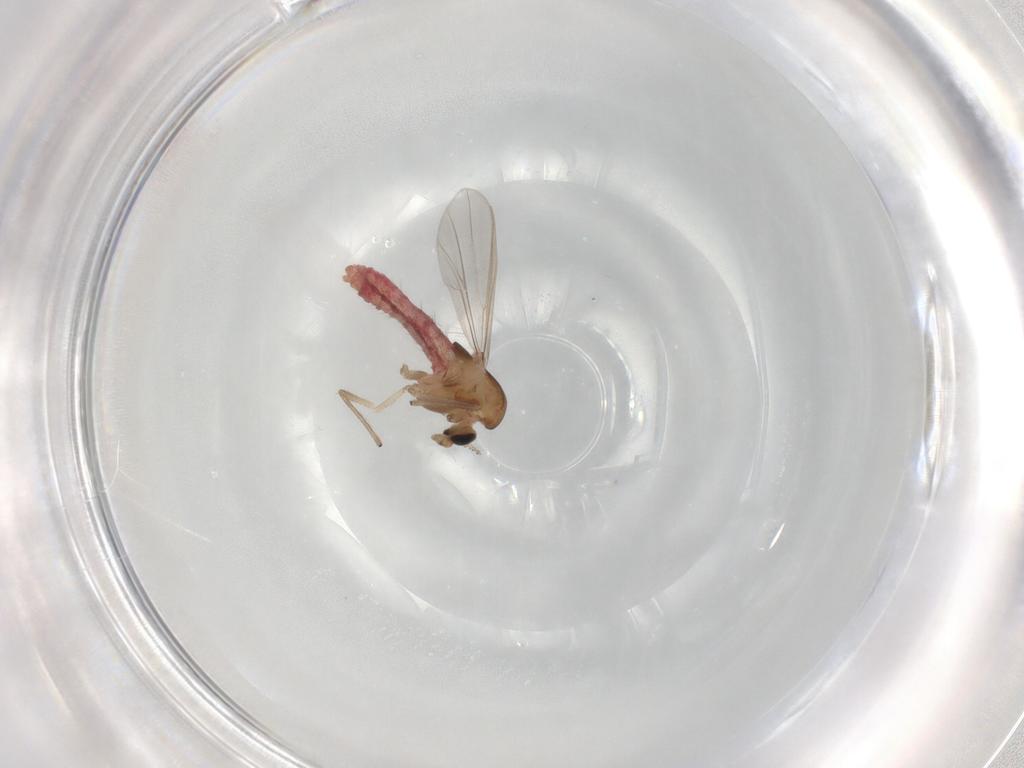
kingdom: Animalia
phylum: Arthropoda
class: Insecta
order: Diptera
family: Chironomidae
